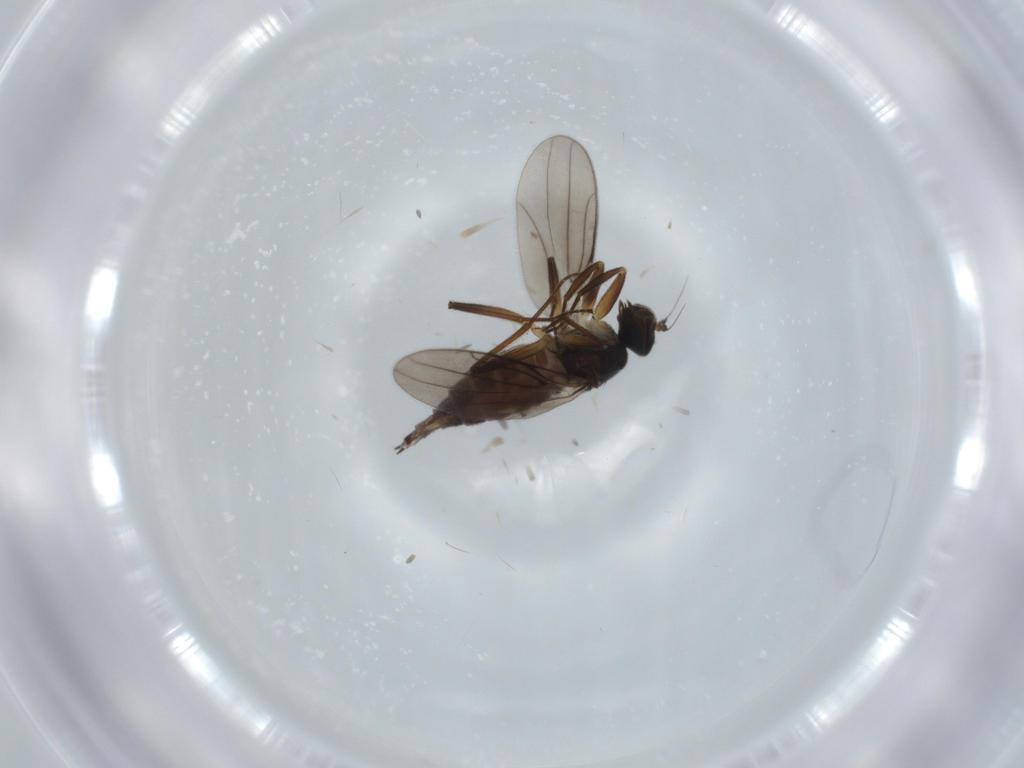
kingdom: Animalia
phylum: Arthropoda
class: Insecta
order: Diptera
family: Hybotidae
